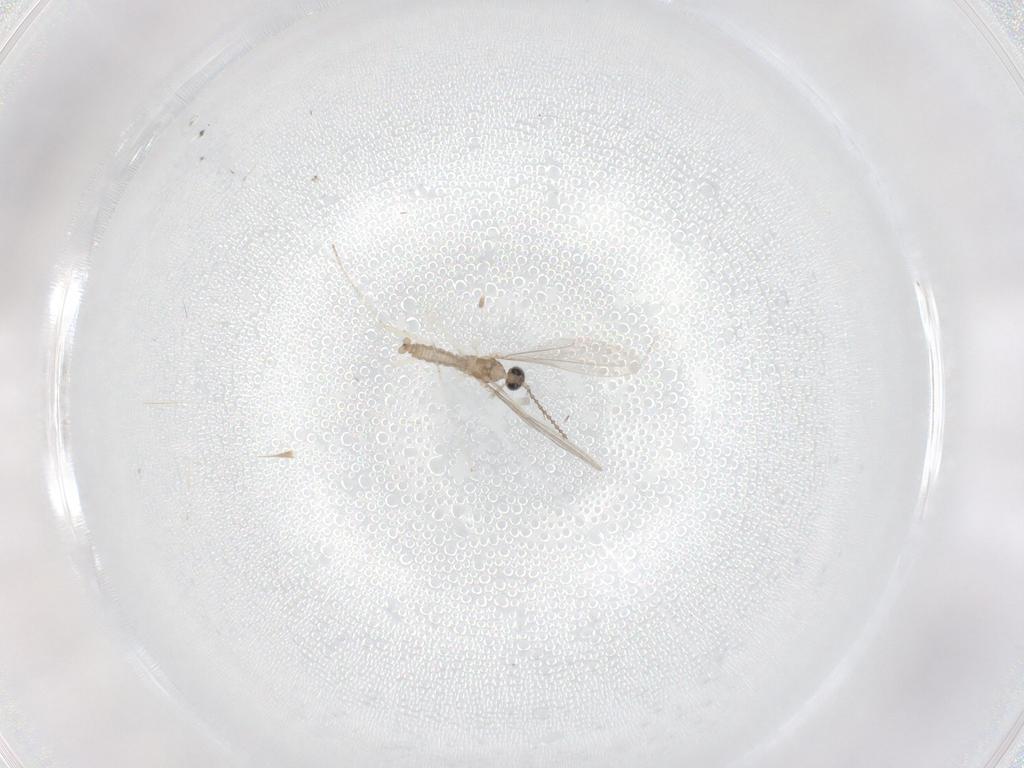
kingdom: Animalia
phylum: Arthropoda
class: Insecta
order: Diptera
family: Cecidomyiidae
